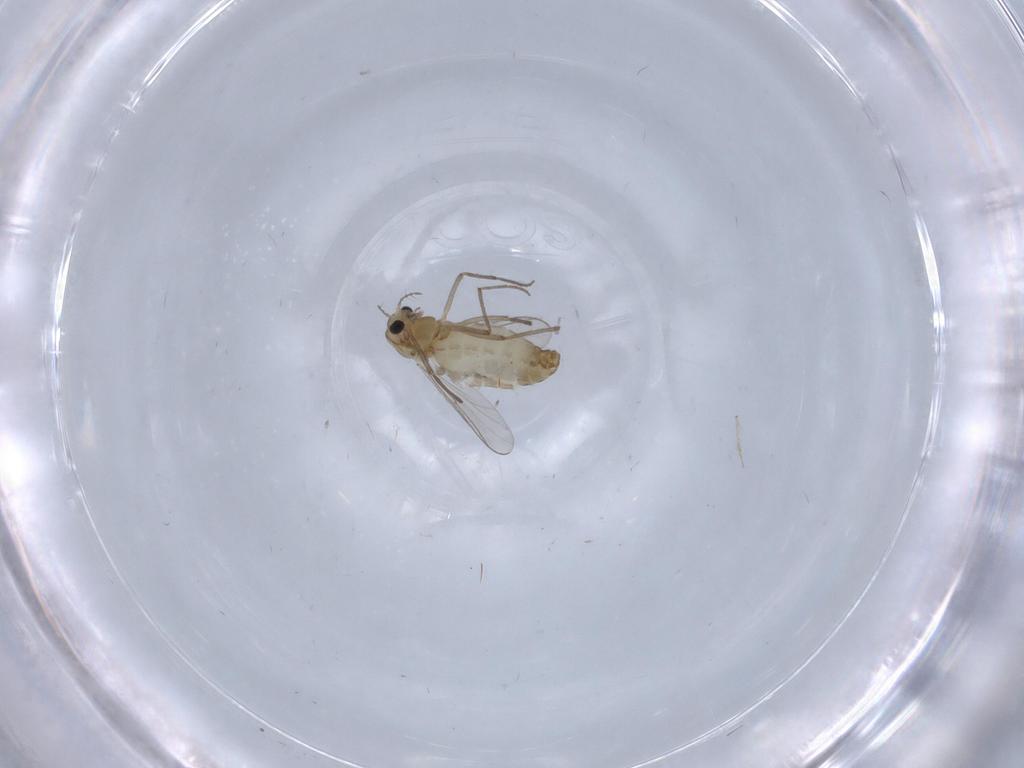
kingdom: Animalia
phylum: Arthropoda
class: Insecta
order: Diptera
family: Chironomidae
